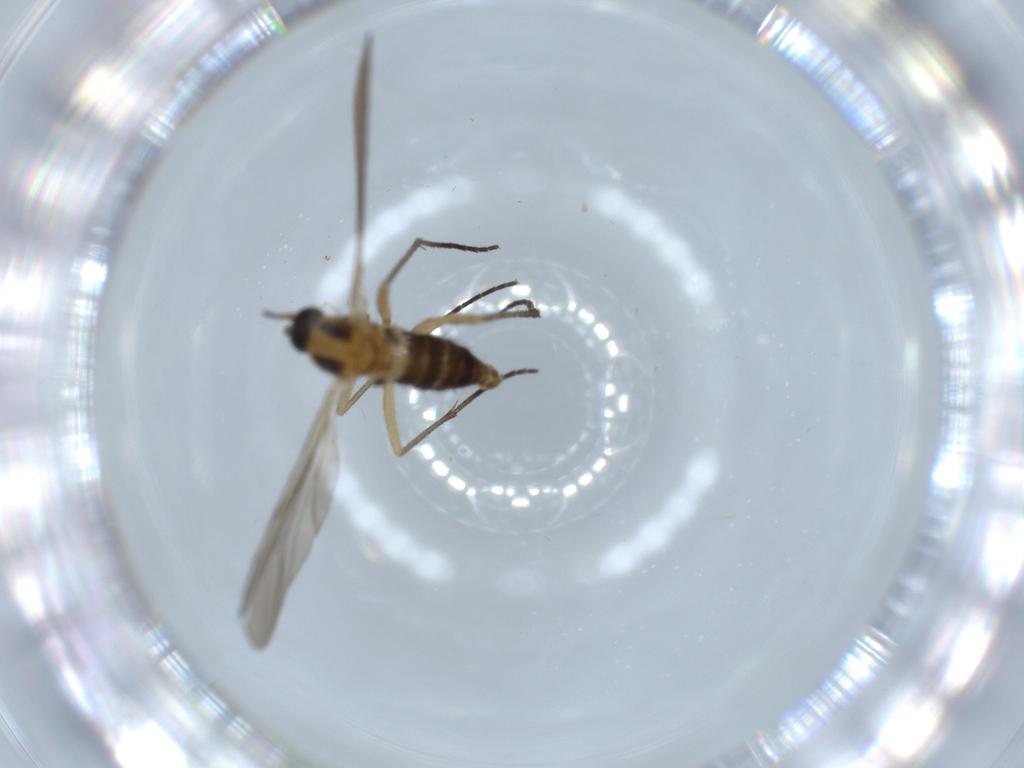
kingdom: Animalia
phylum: Arthropoda
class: Insecta
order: Diptera
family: Sciaridae
